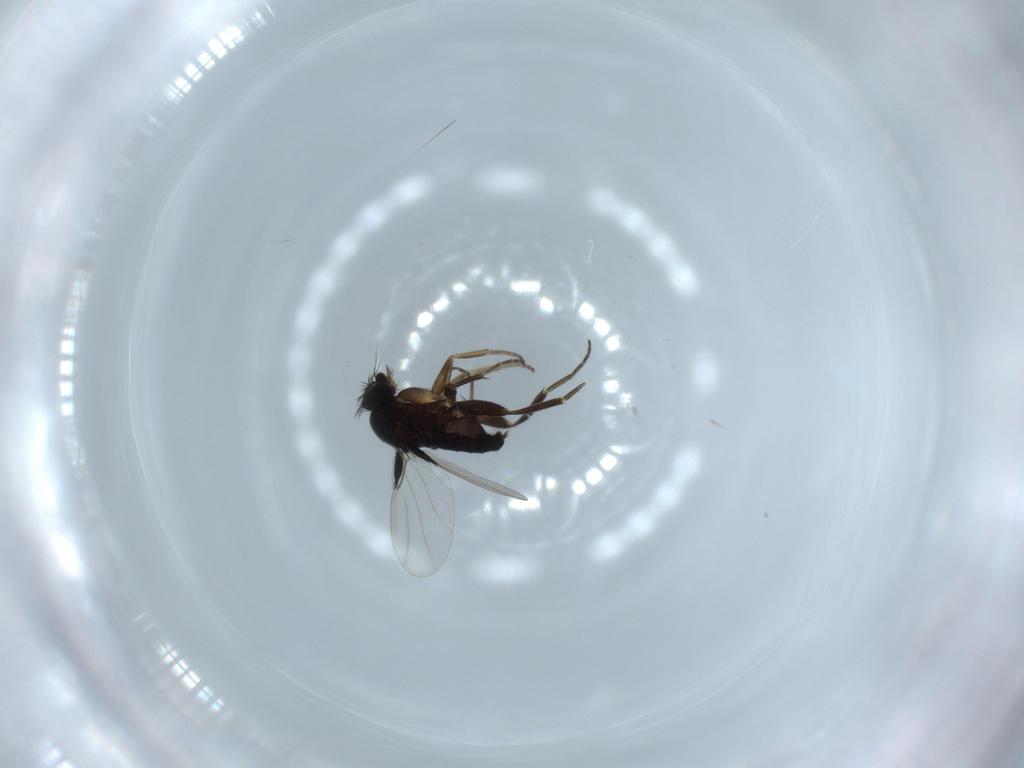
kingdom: Animalia
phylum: Arthropoda
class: Insecta
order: Diptera
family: Phoridae
